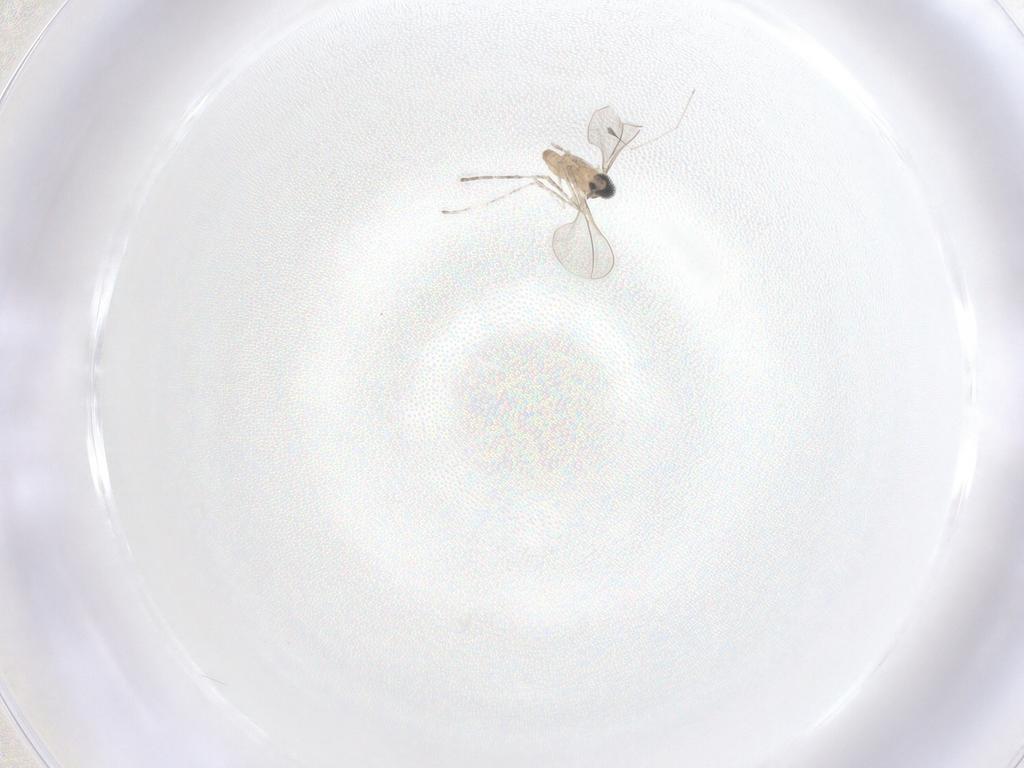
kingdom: Animalia
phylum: Arthropoda
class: Insecta
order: Diptera
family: Cecidomyiidae
